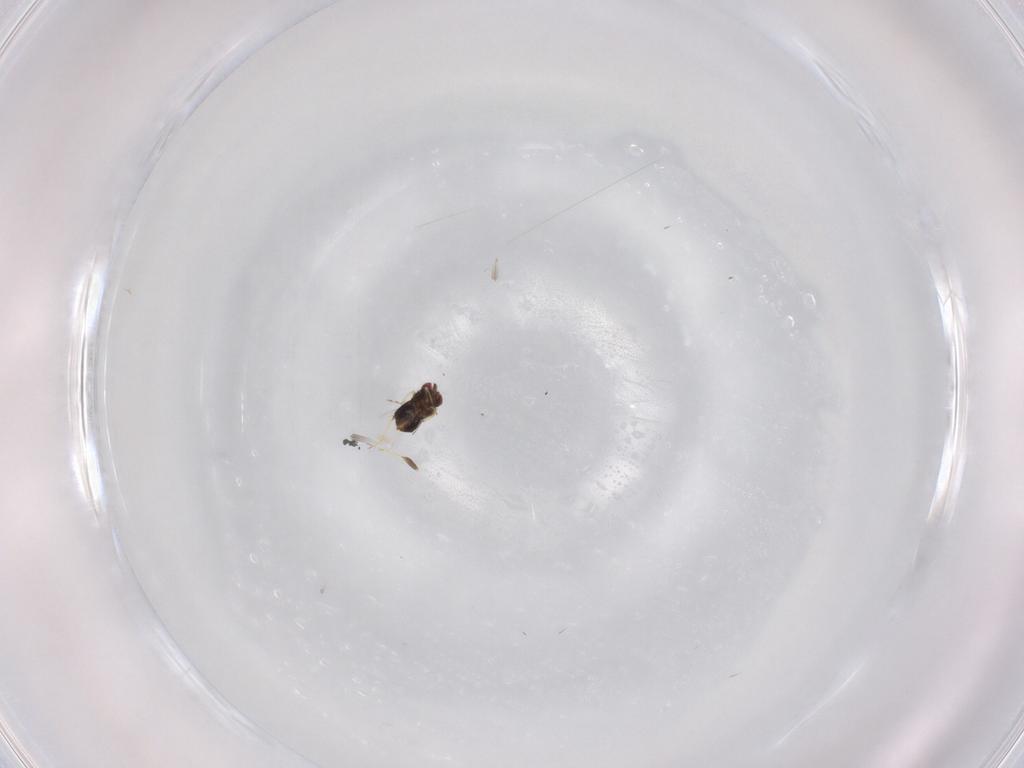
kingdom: Animalia
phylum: Arthropoda
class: Insecta
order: Hymenoptera
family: Trichogrammatidae
